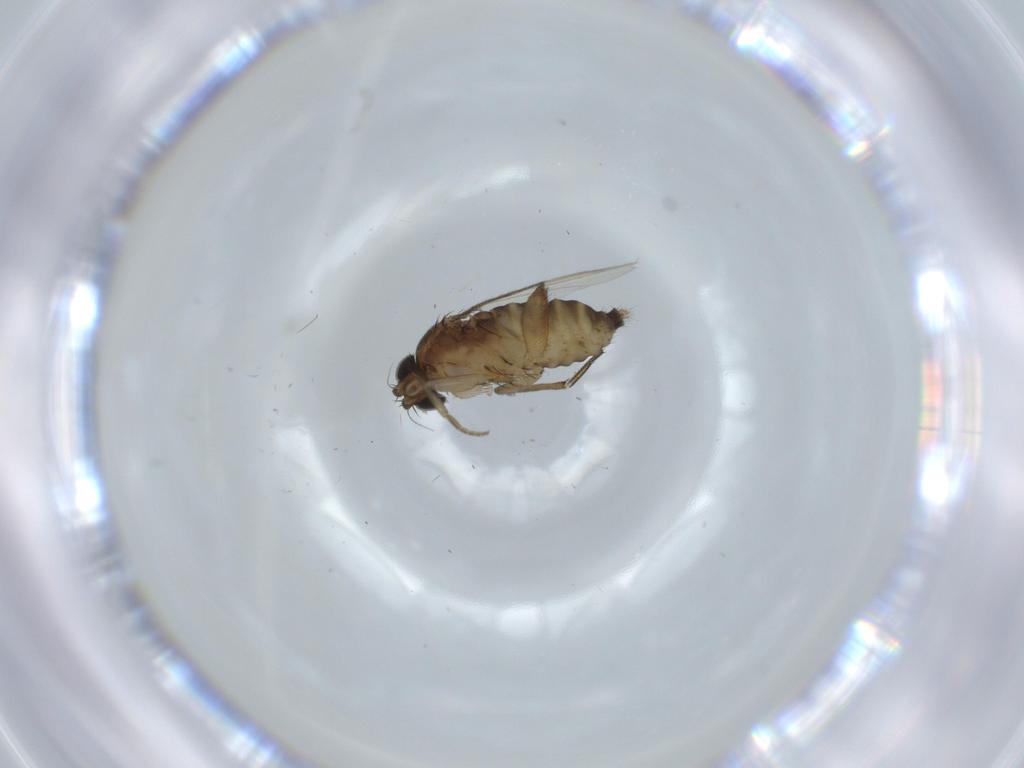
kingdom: Animalia
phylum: Arthropoda
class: Insecta
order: Diptera
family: Phoridae
